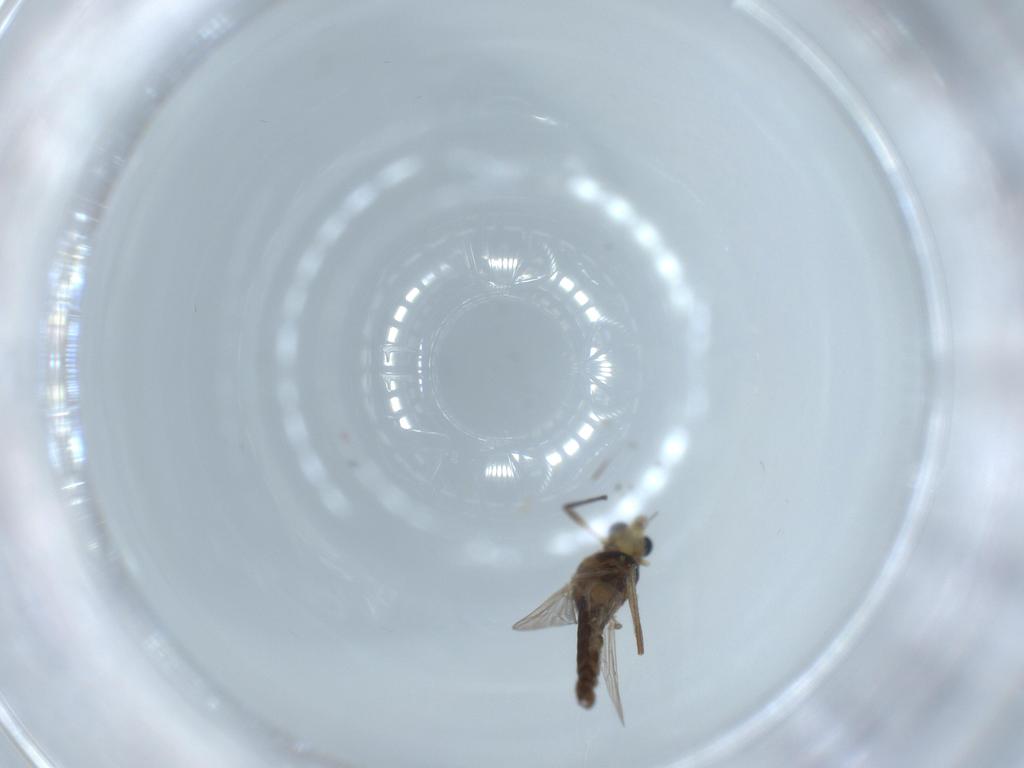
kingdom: Animalia
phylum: Arthropoda
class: Insecta
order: Diptera
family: Chironomidae
